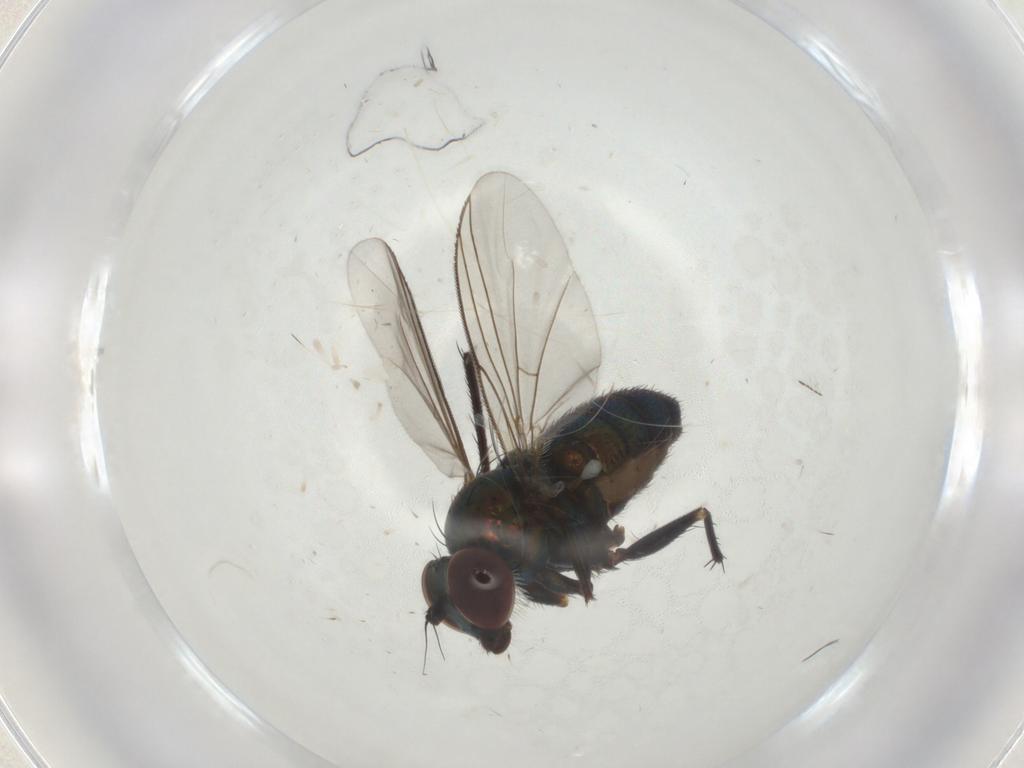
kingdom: Animalia
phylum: Arthropoda
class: Insecta
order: Diptera
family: Dolichopodidae
